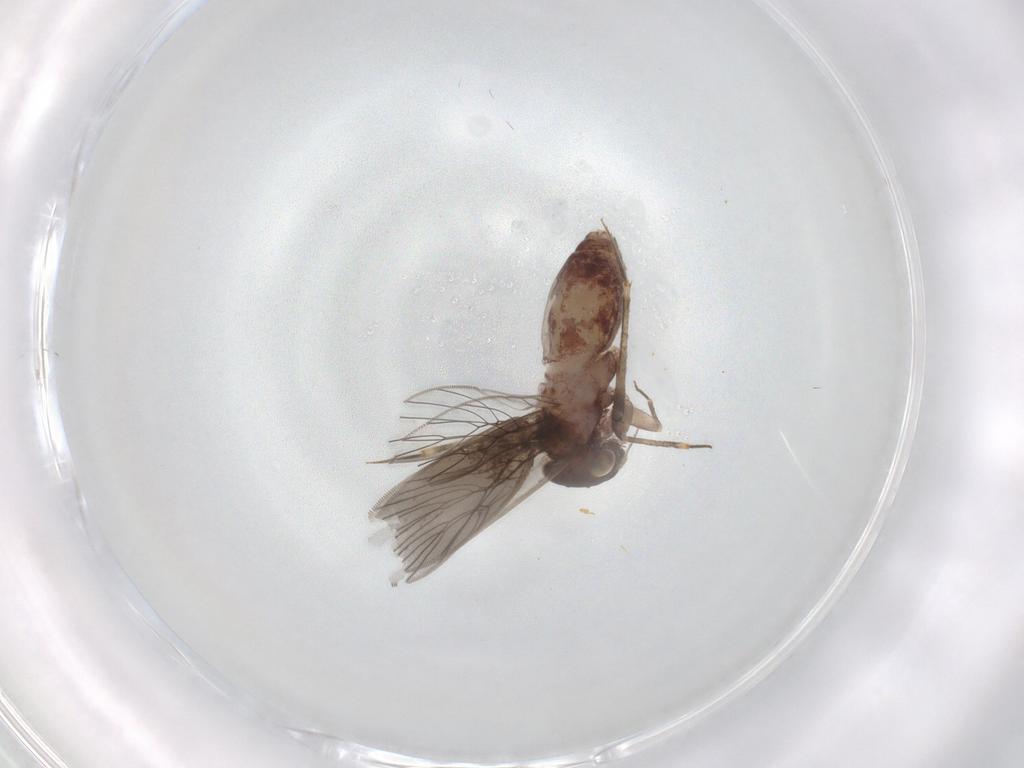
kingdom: Animalia
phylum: Arthropoda
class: Insecta
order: Psocodea
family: Lepidopsocidae
